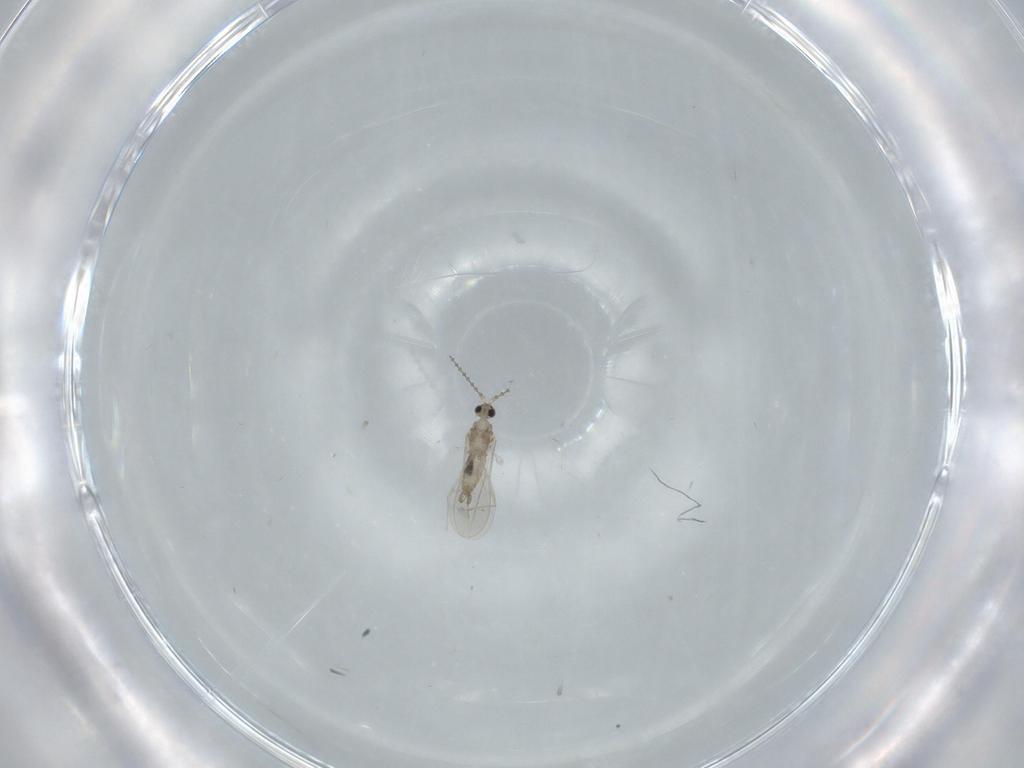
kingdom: Animalia
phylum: Arthropoda
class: Insecta
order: Diptera
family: Cecidomyiidae
